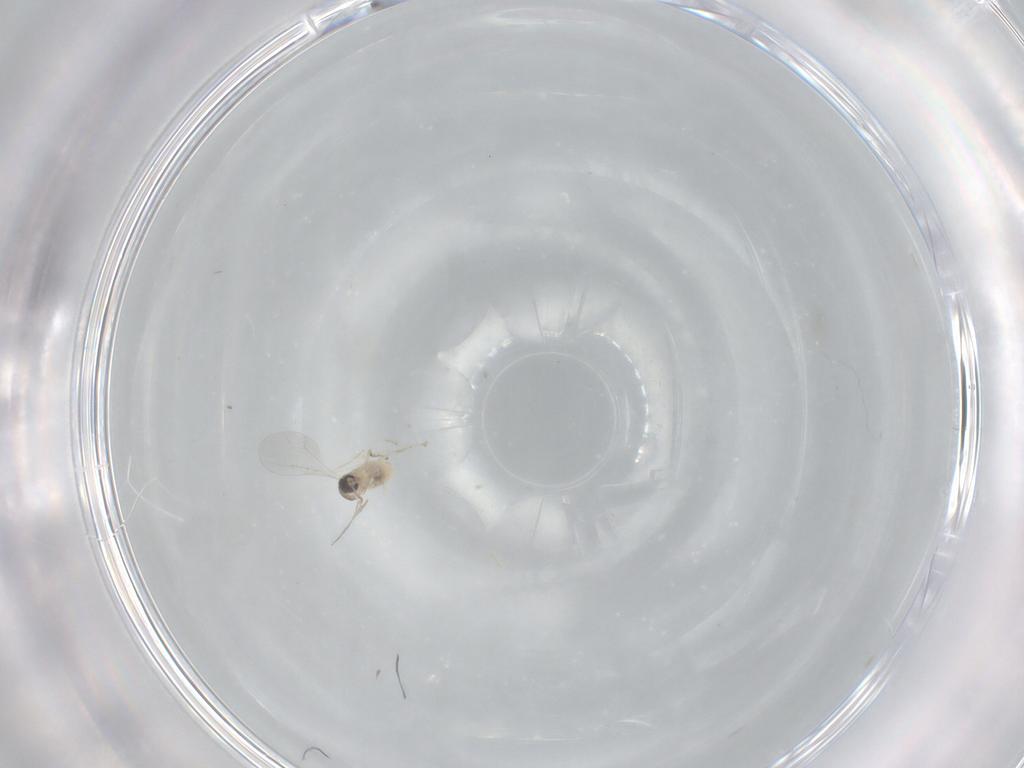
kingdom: Animalia
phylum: Arthropoda
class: Insecta
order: Diptera
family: Cecidomyiidae
